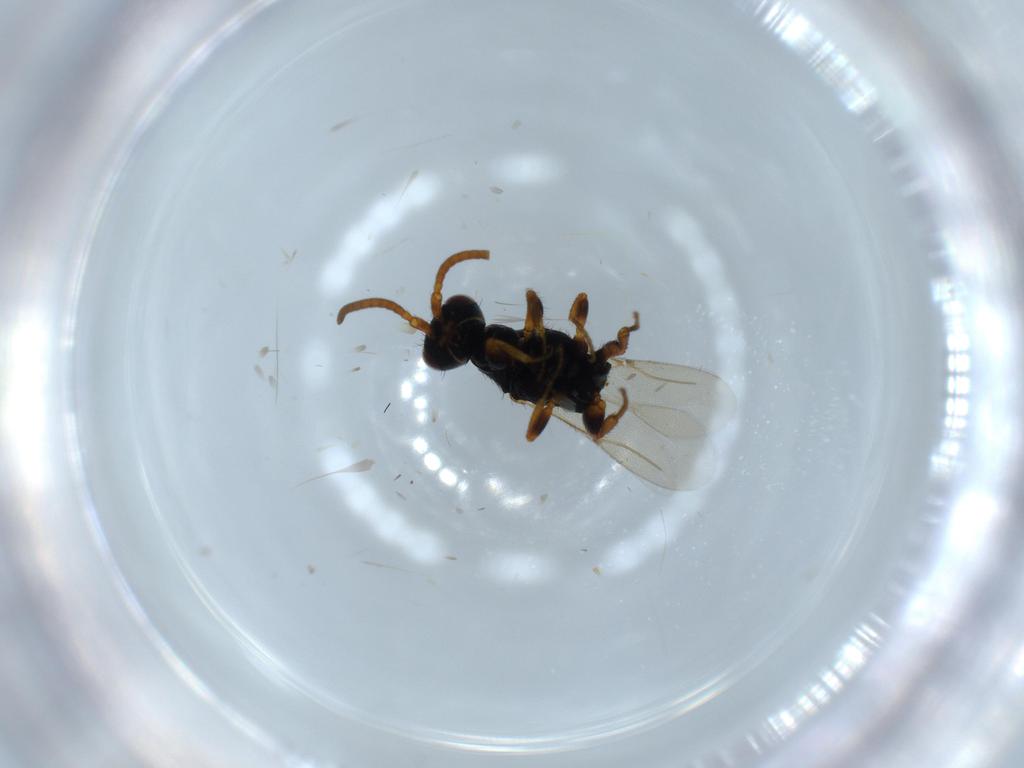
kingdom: Animalia
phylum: Arthropoda
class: Insecta
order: Hymenoptera
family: Bethylidae
